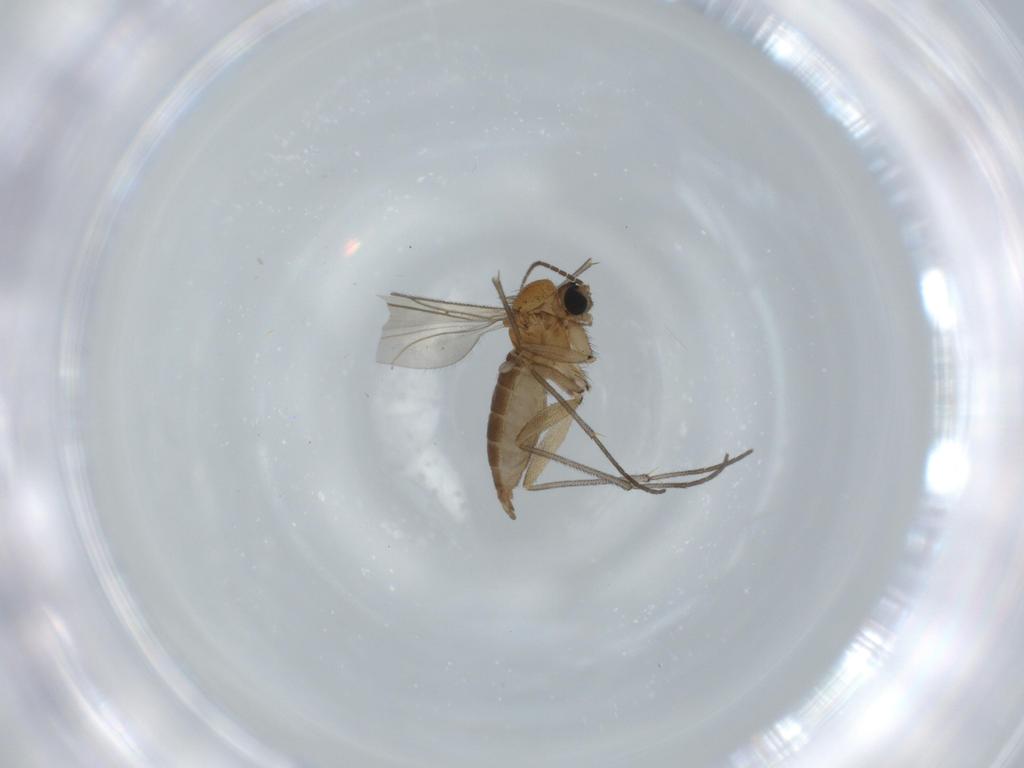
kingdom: Animalia
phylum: Arthropoda
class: Insecta
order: Diptera
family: Sciaridae
